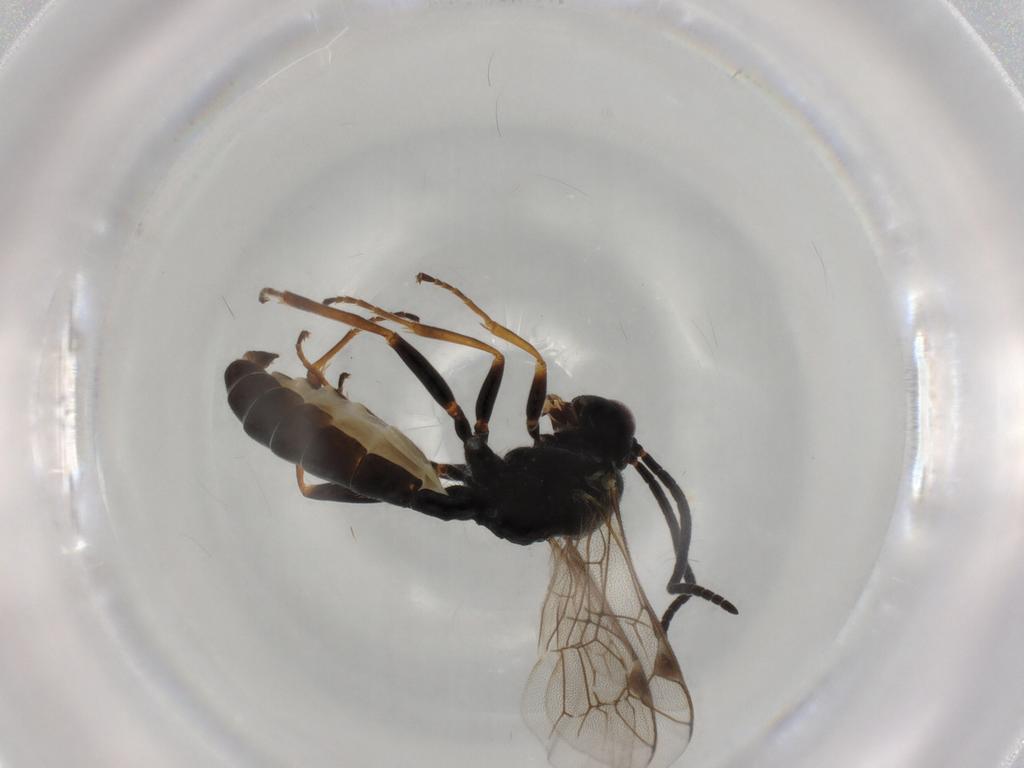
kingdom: Animalia
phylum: Arthropoda
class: Insecta
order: Hymenoptera
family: Ichneumonidae
